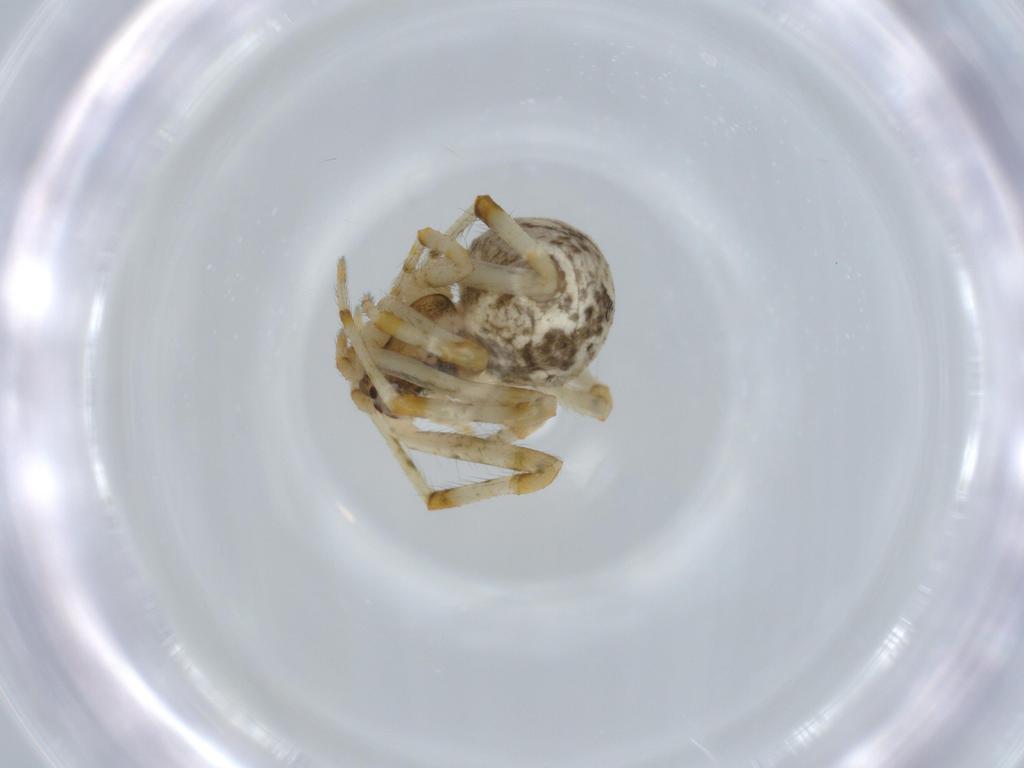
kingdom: Animalia
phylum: Arthropoda
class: Arachnida
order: Araneae
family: Theridiidae
